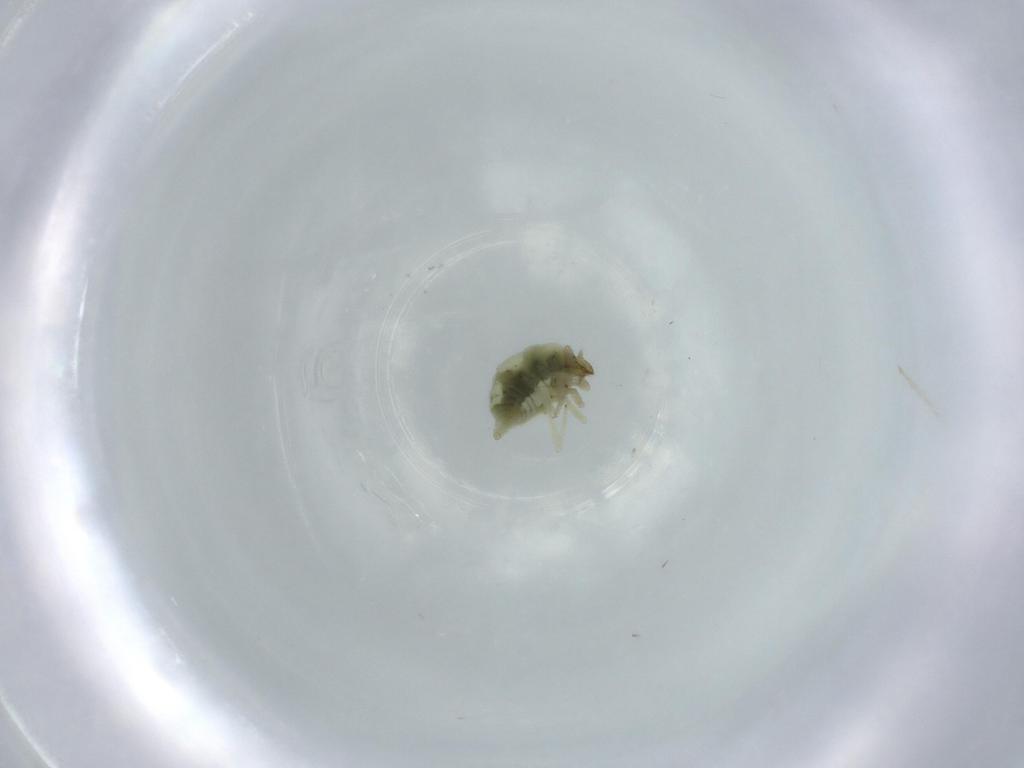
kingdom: Animalia
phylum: Arthropoda
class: Insecta
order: Neuroptera
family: Coniopterygidae
